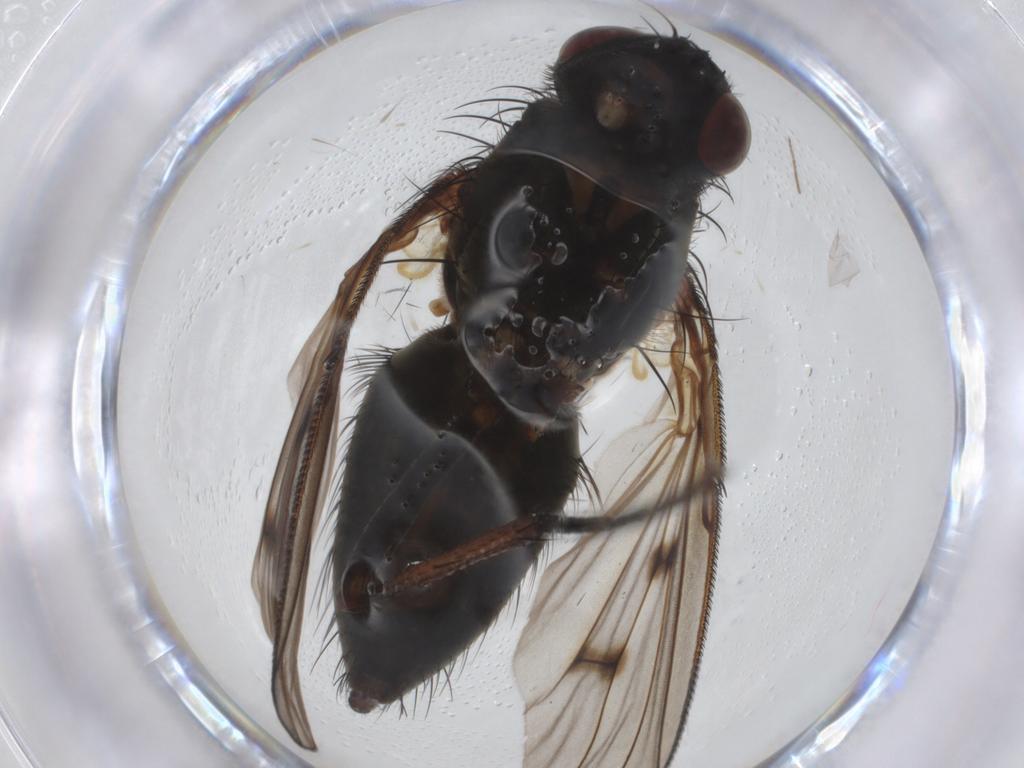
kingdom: Animalia
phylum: Arthropoda
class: Insecta
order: Diptera
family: Muscidae
